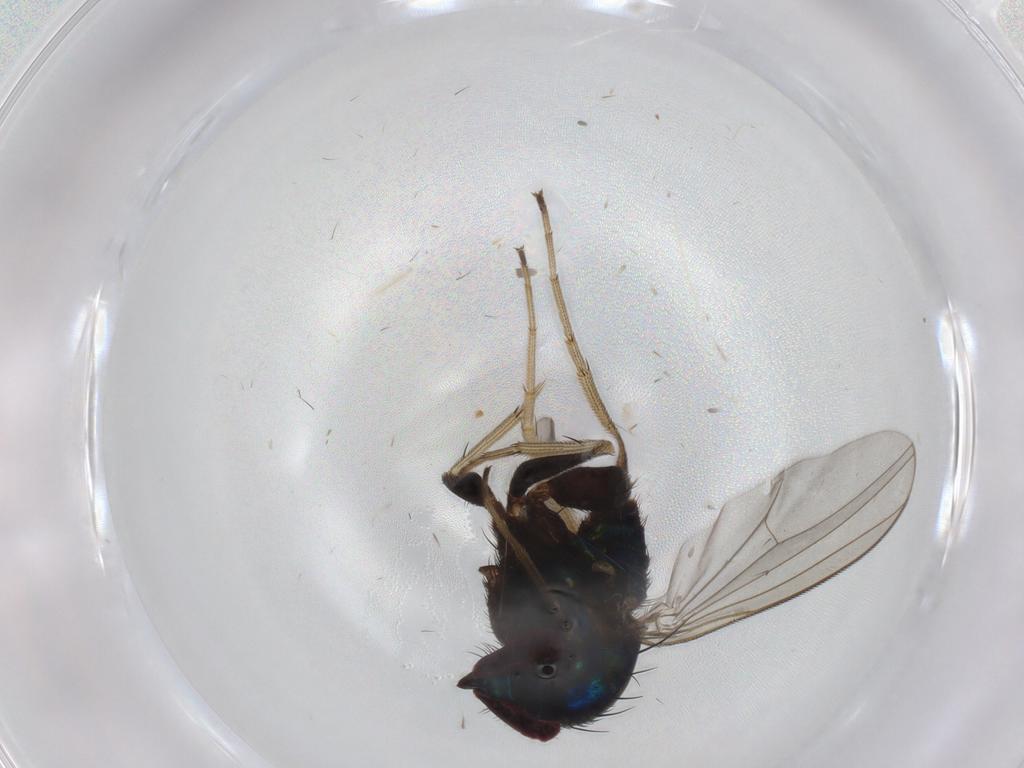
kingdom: Animalia
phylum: Arthropoda
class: Insecta
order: Diptera
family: Dolichopodidae
